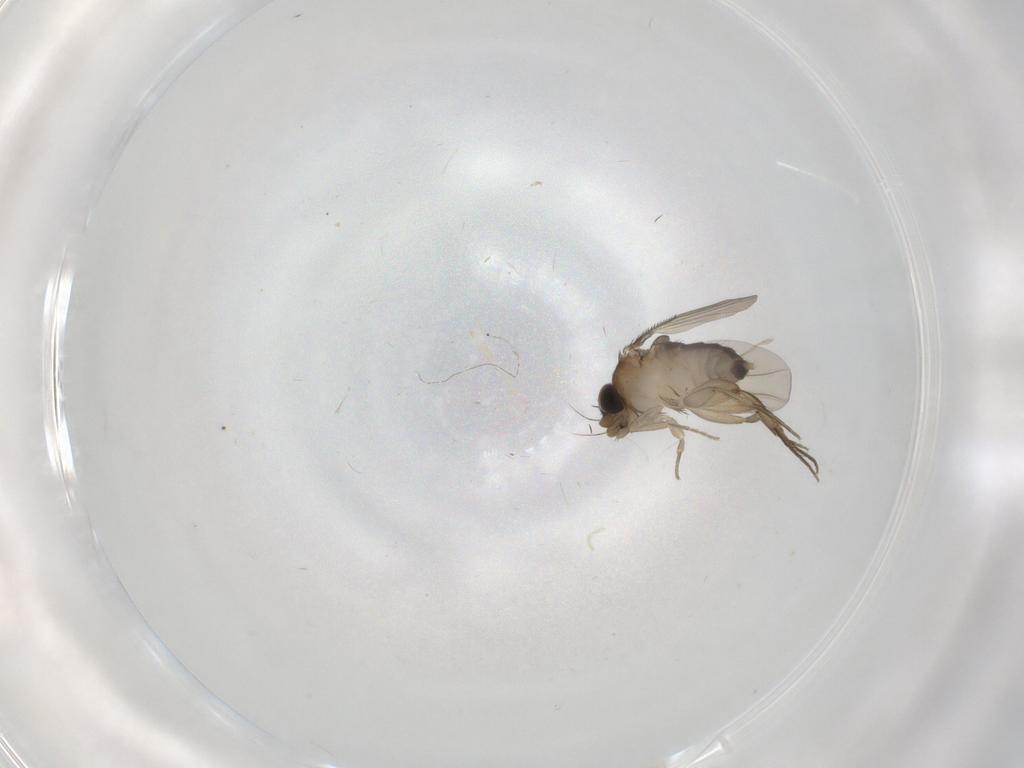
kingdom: Animalia
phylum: Arthropoda
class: Insecta
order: Diptera
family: Phoridae
